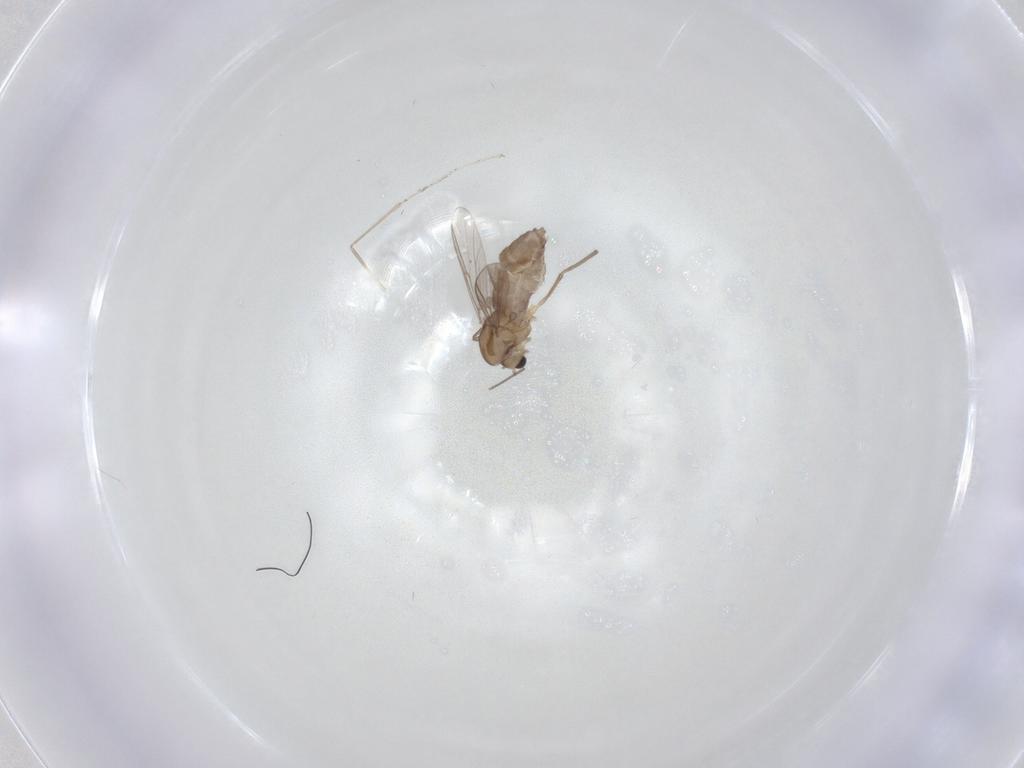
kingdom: Animalia
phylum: Arthropoda
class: Insecta
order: Diptera
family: Chironomidae
